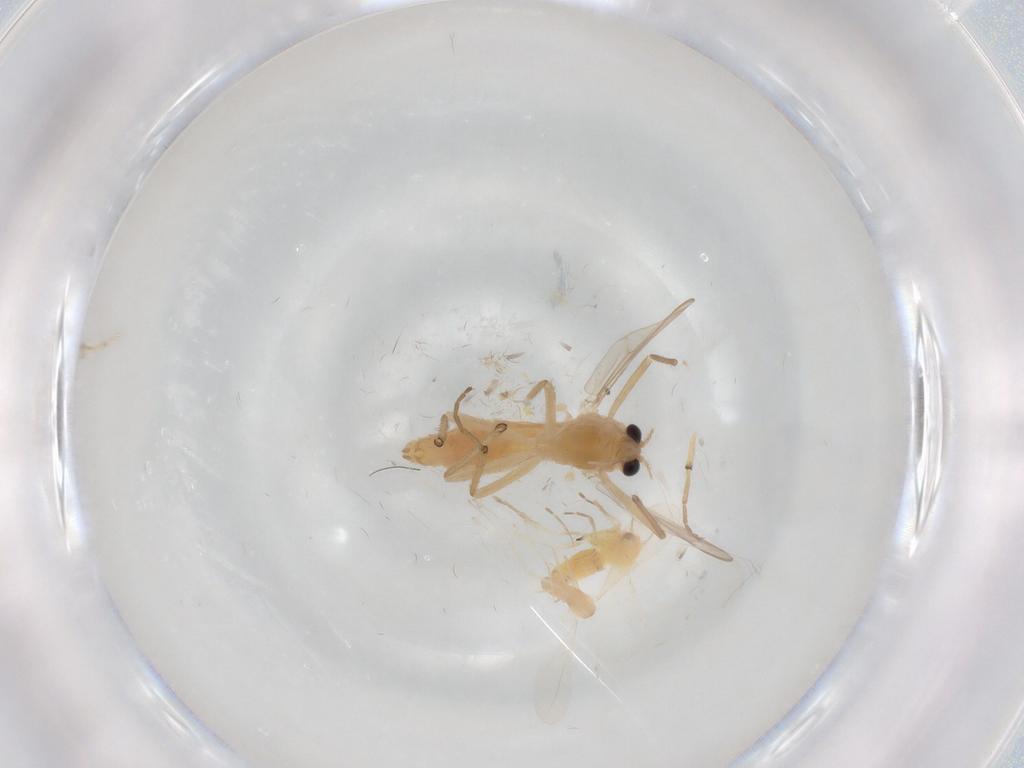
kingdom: Animalia
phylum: Arthropoda
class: Insecta
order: Diptera
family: Chironomidae
